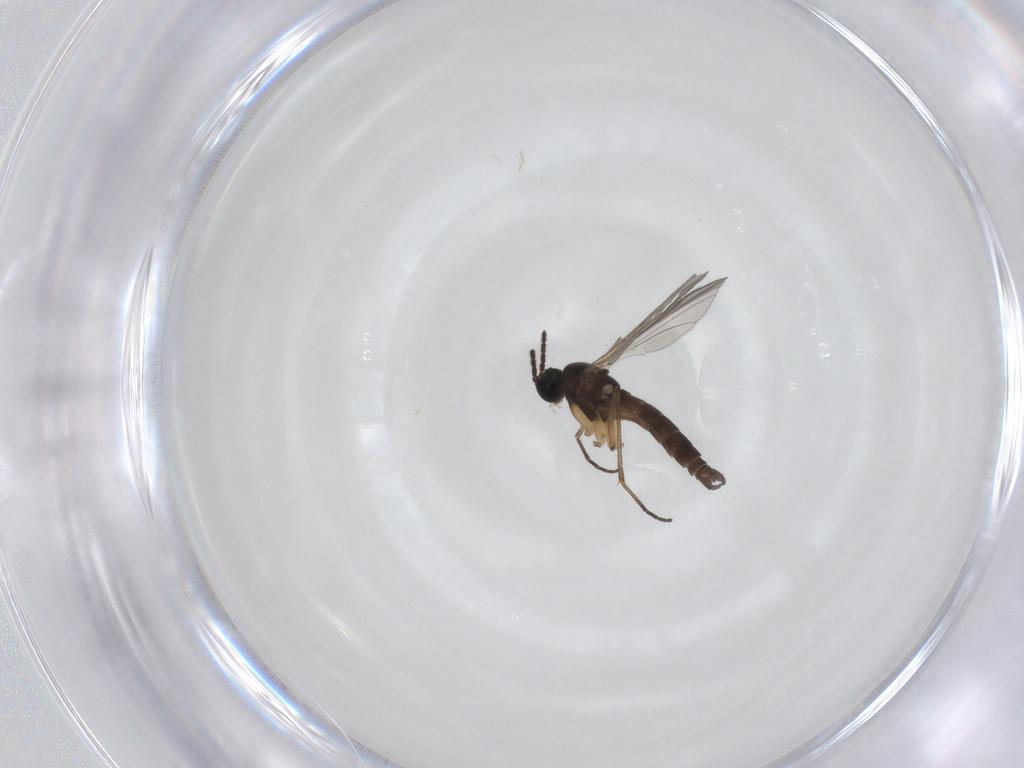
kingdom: Animalia
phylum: Arthropoda
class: Insecta
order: Diptera
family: Sciaridae
